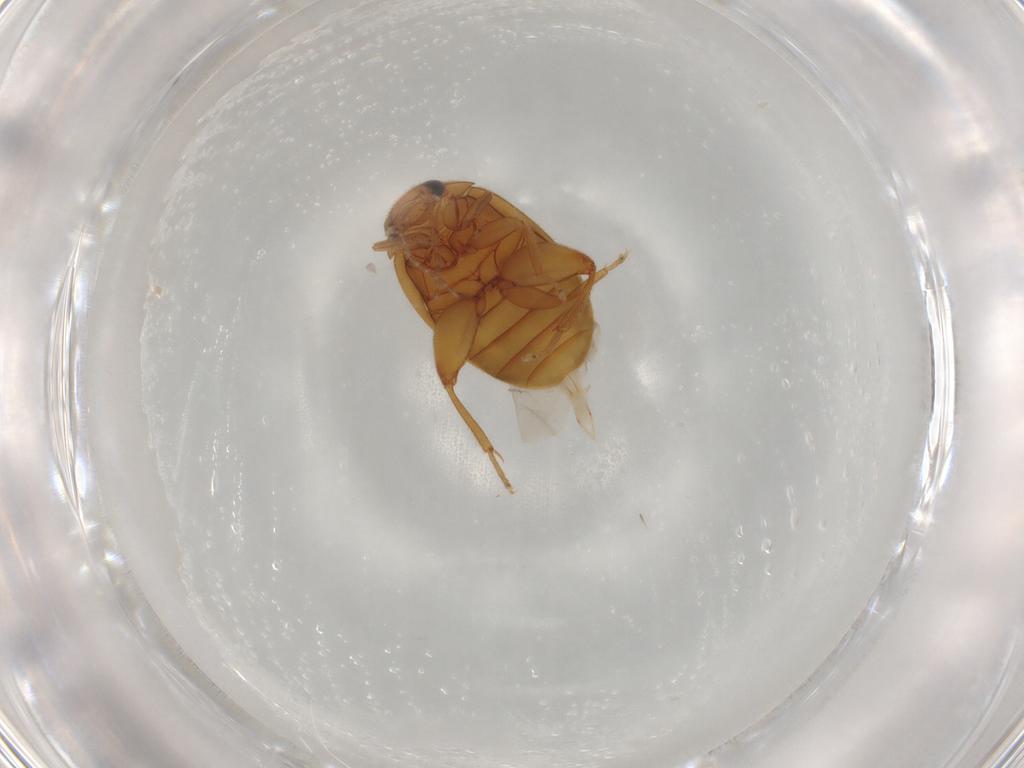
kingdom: Animalia
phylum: Arthropoda
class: Insecta
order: Coleoptera
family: Scirtidae
